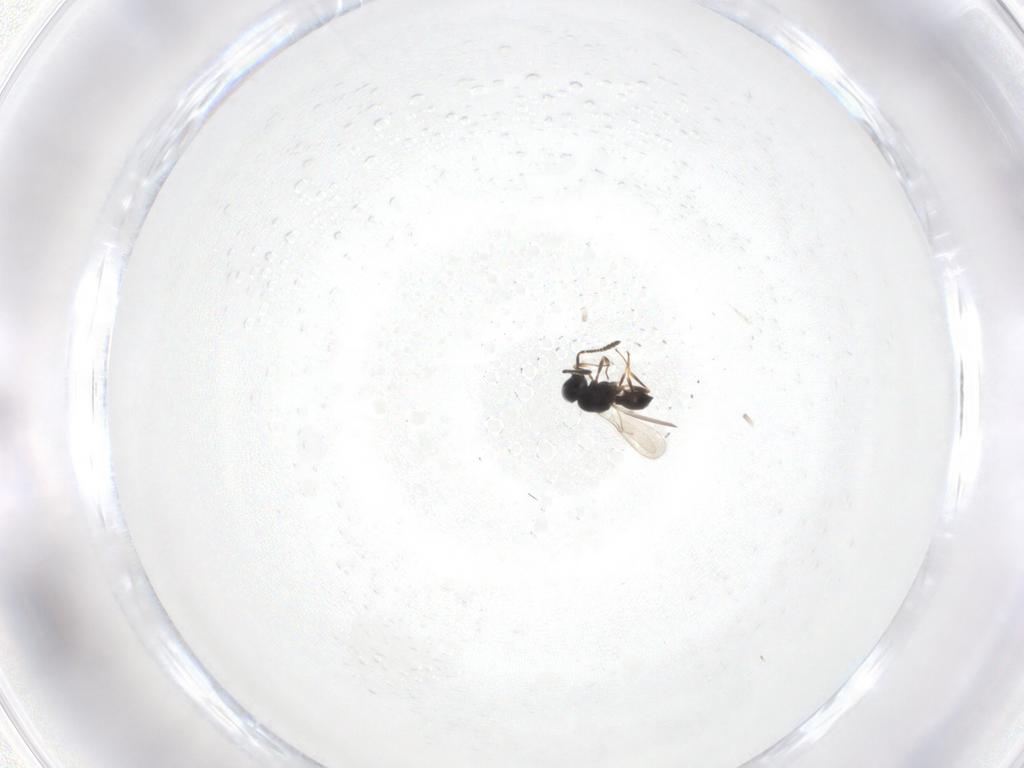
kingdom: Animalia
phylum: Arthropoda
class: Insecta
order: Hymenoptera
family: Scelionidae
